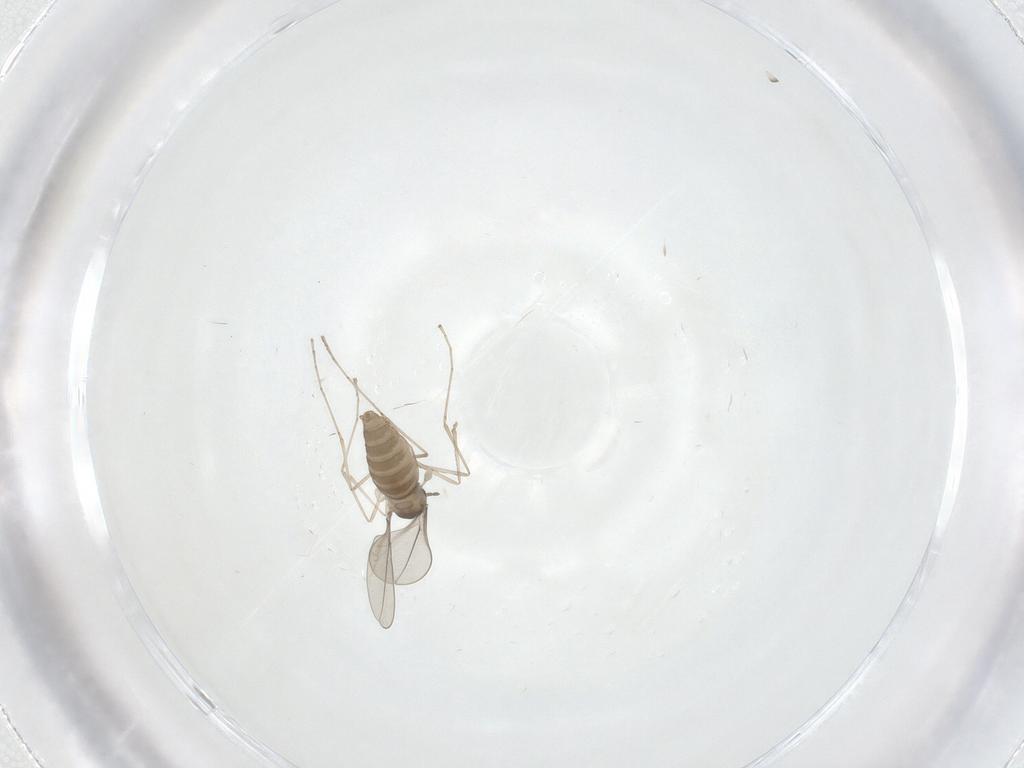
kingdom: Animalia
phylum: Arthropoda
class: Insecta
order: Diptera
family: Cecidomyiidae
